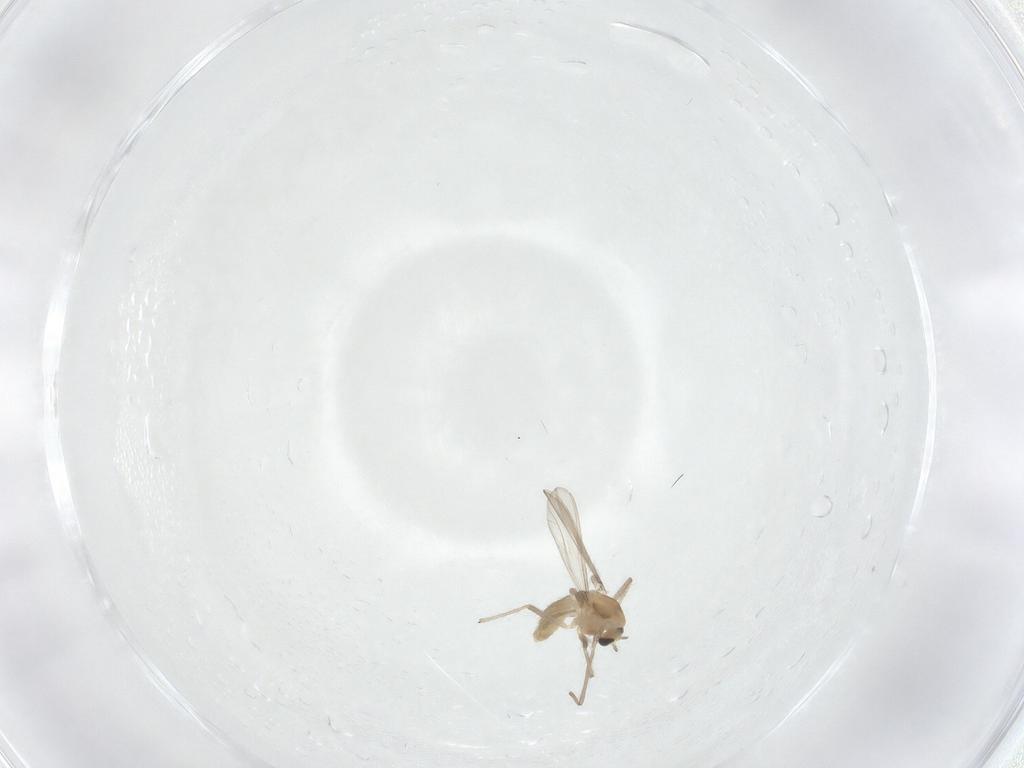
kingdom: Animalia
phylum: Arthropoda
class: Insecta
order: Diptera
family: Chironomidae
